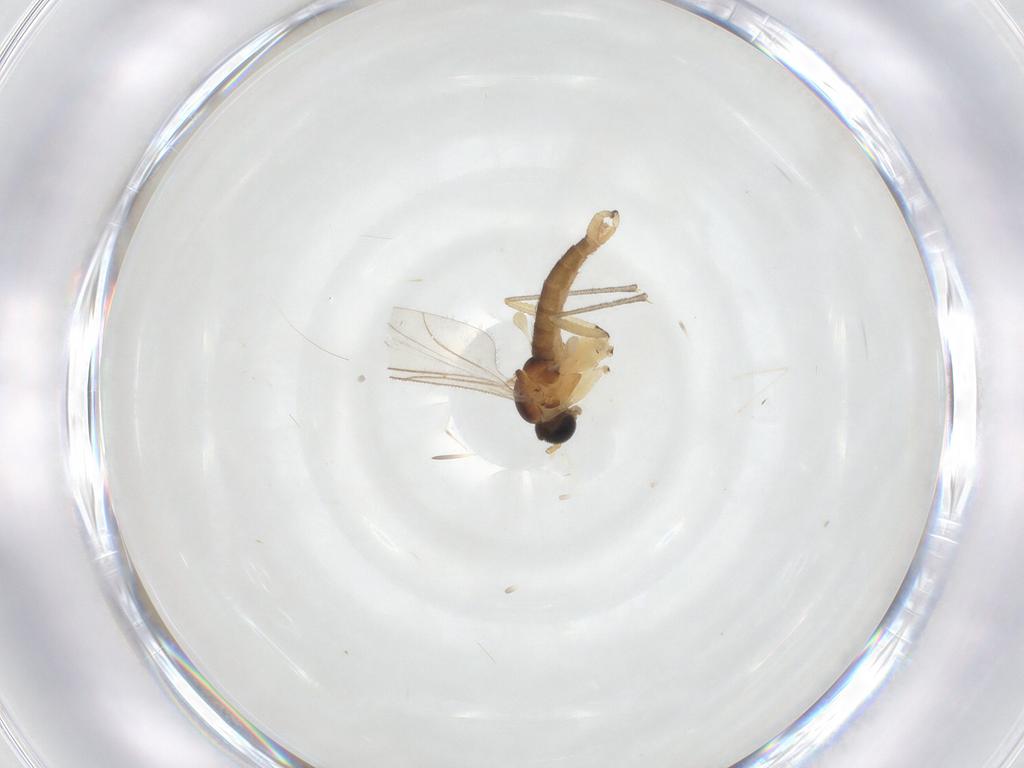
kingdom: Animalia
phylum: Arthropoda
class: Insecta
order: Diptera
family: Sciaridae
